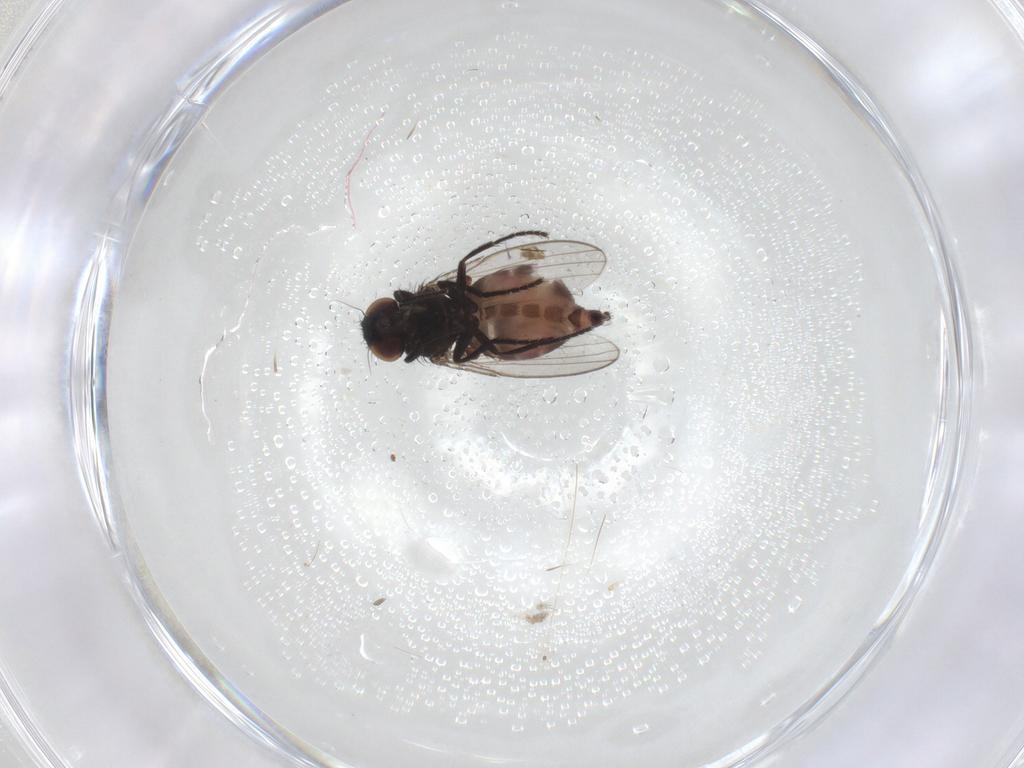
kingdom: Animalia
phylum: Arthropoda
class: Insecta
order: Diptera
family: Milichiidae
